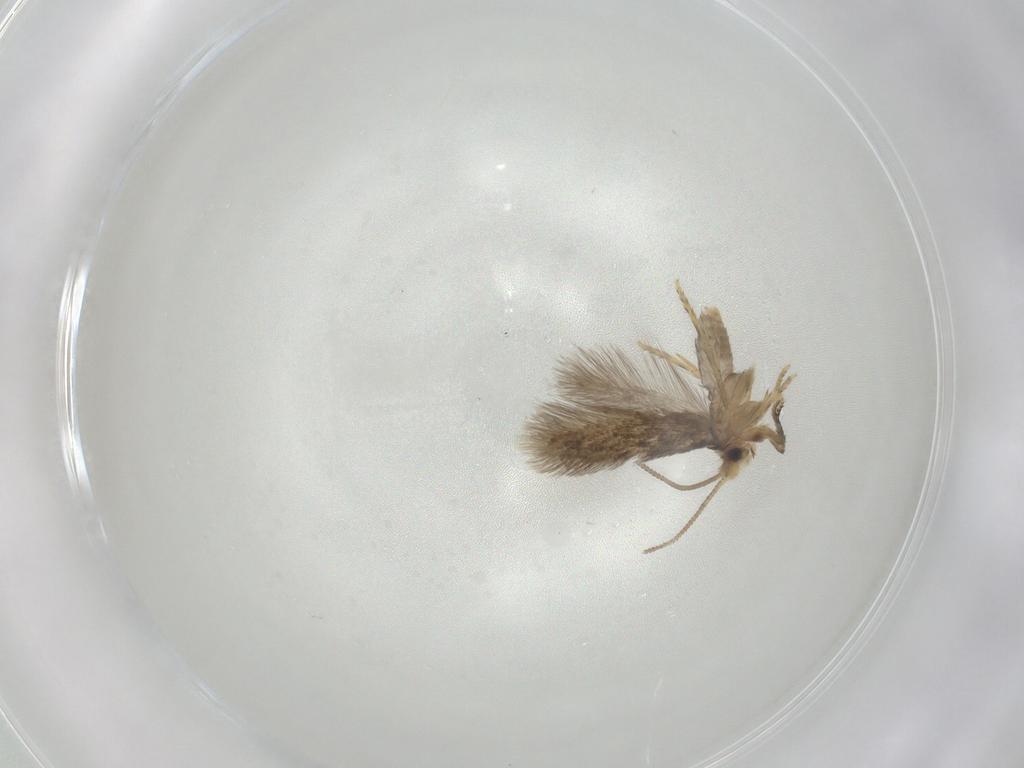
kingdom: Animalia
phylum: Arthropoda
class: Insecta
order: Lepidoptera
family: Nepticulidae
